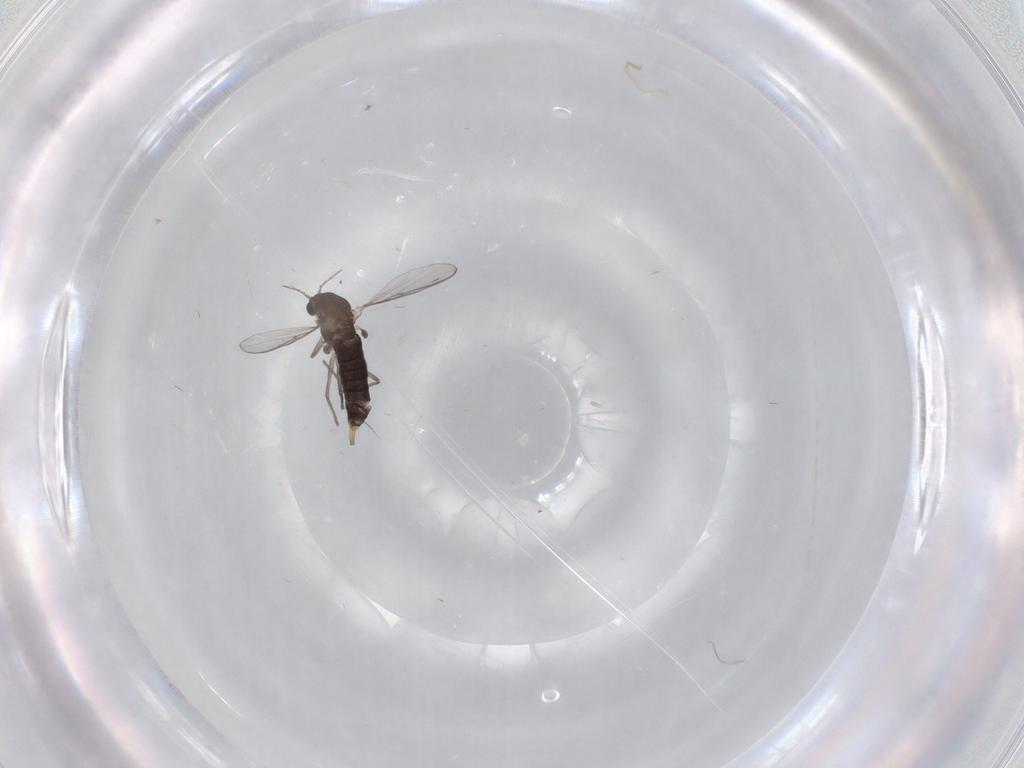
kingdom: Animalia
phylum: Arthropoda
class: Insecta
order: Diptera
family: Chironomidae
